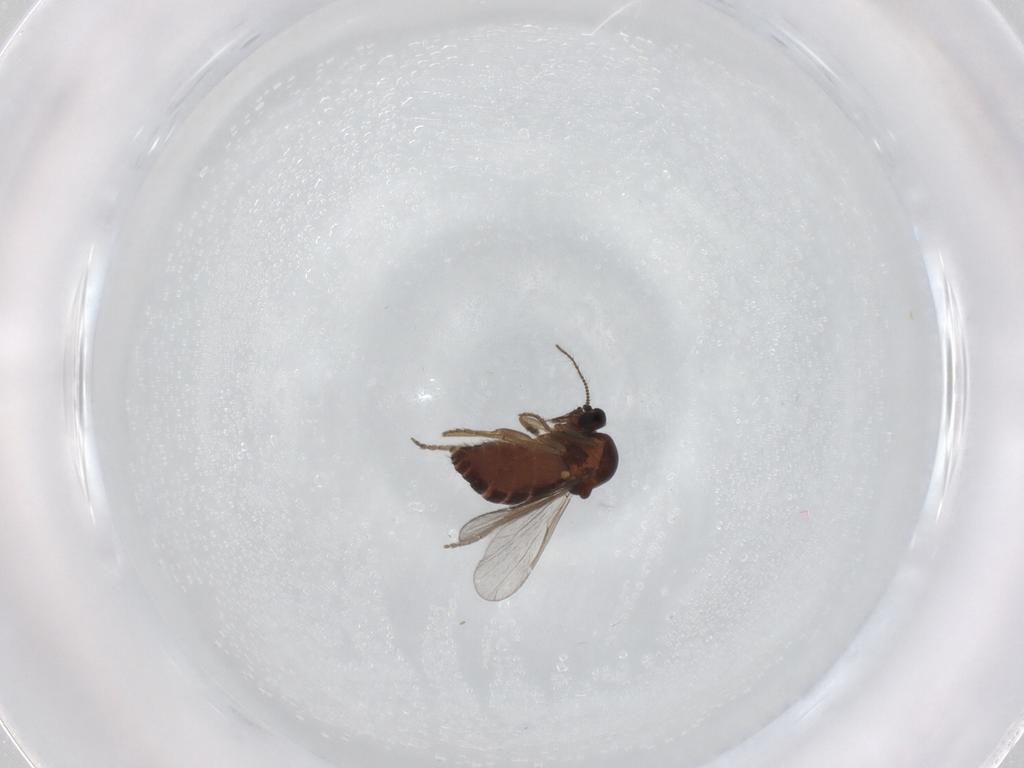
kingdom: Animalia
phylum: Arthropoda
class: Insecta
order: Diptera
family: Ceratopogonidae
